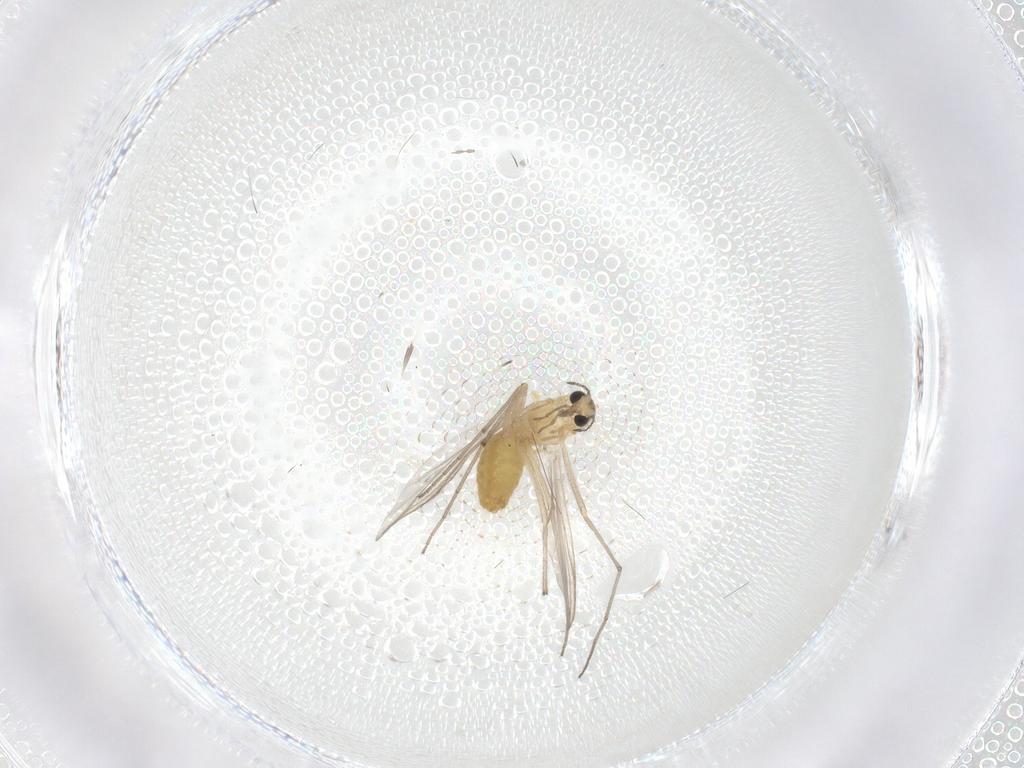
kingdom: Animalia
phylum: Arthropoda
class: Insecta
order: Diptera
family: Chironomidae
